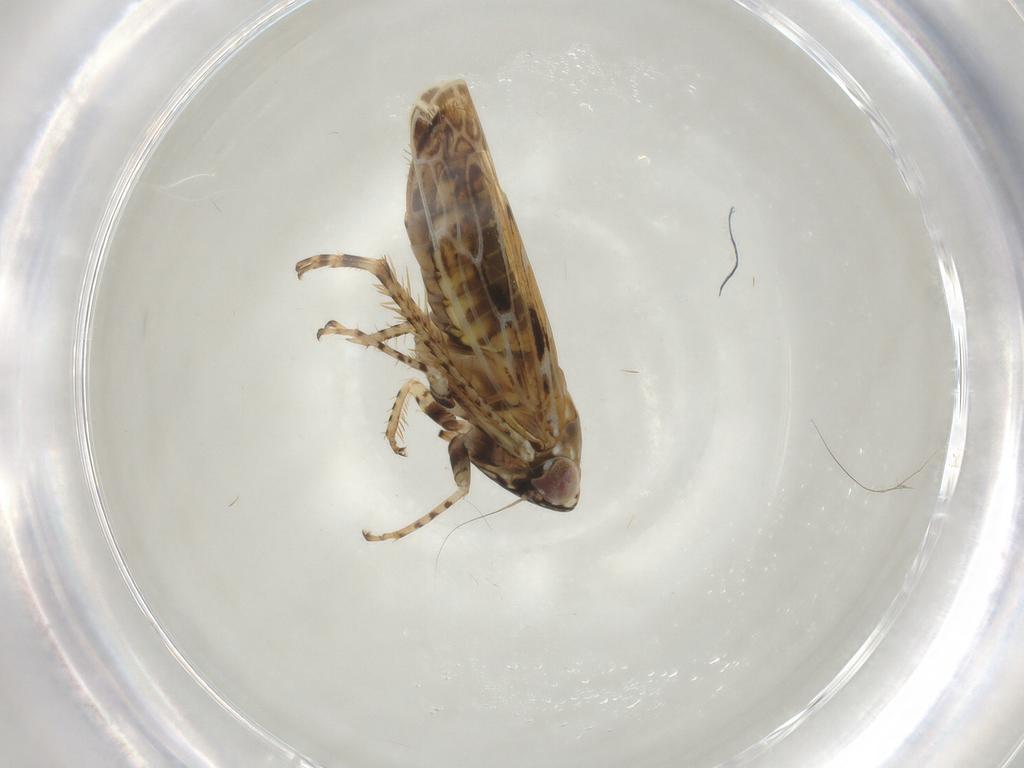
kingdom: Animalia
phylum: Arthropoda
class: Insecta
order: Hemiptera
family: Cicadellidae
